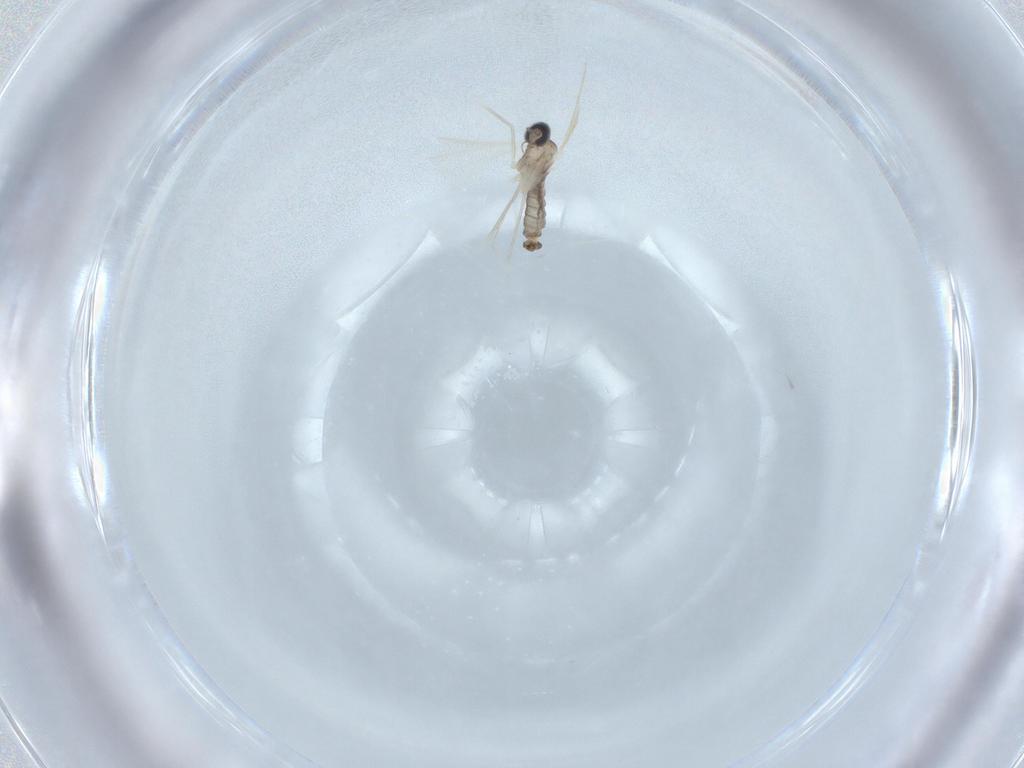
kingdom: Animalia
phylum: Arthropoda
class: Insecta
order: Diptera
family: Cecidomyiidae
